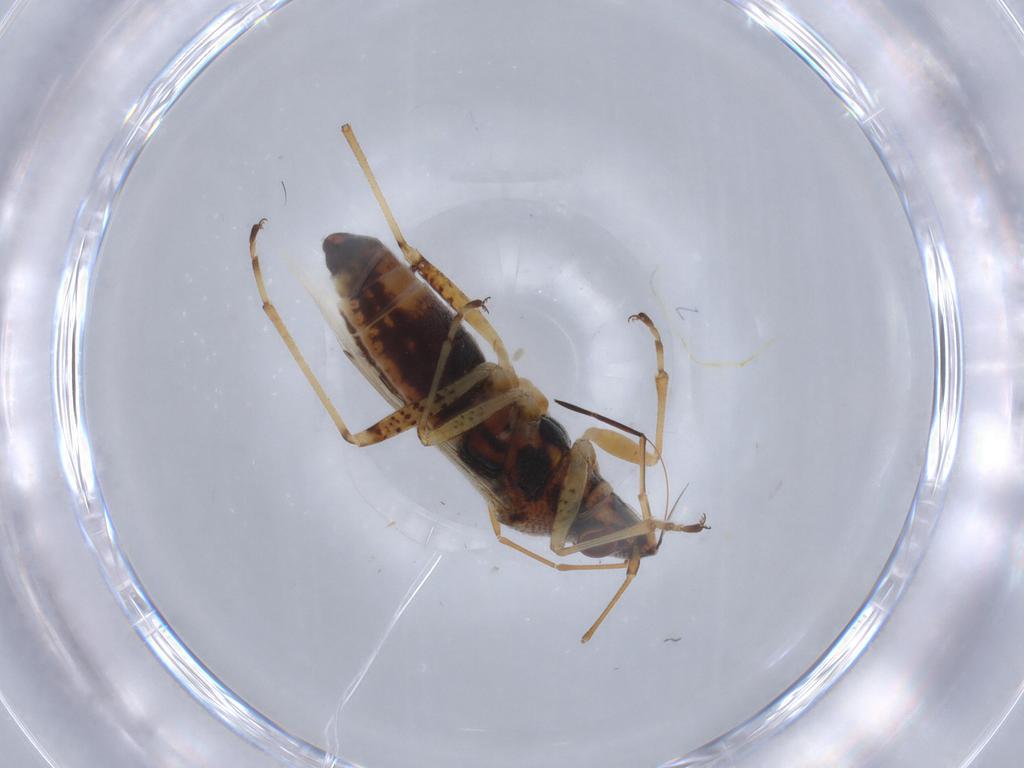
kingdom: Animalia
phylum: Arthropoda
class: Insecta
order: Hemiptera
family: Lygaeidae
